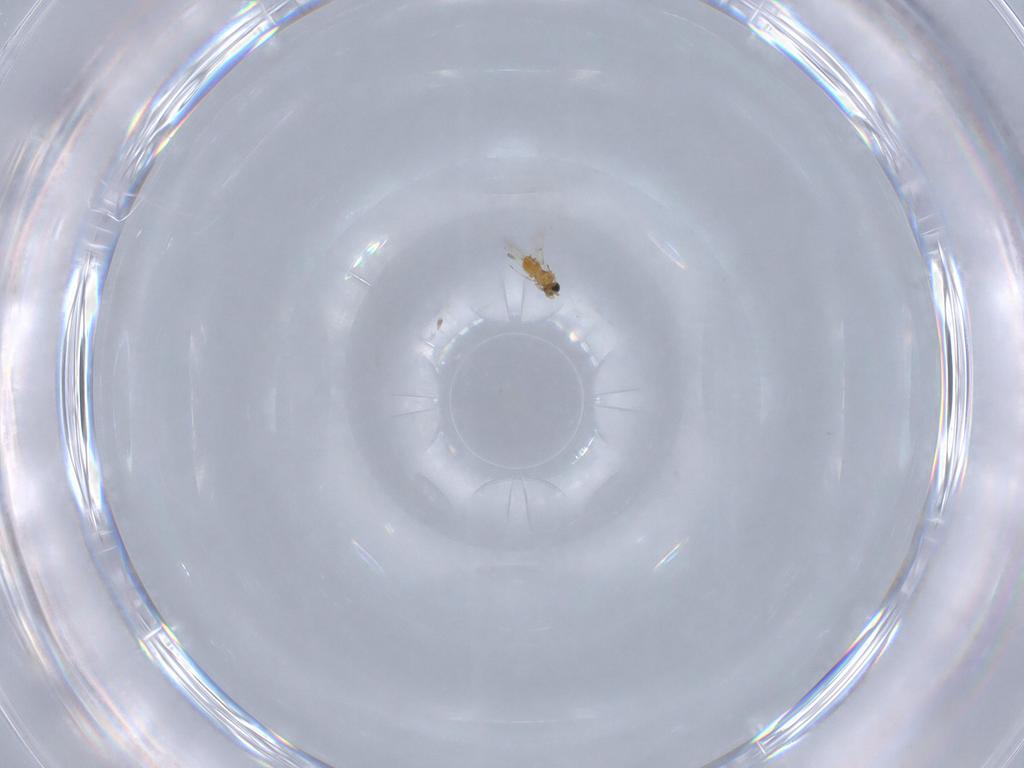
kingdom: Animalia
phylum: Arthropoda
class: Insecta
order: Hymenoptera
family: Trichogrammatidae
